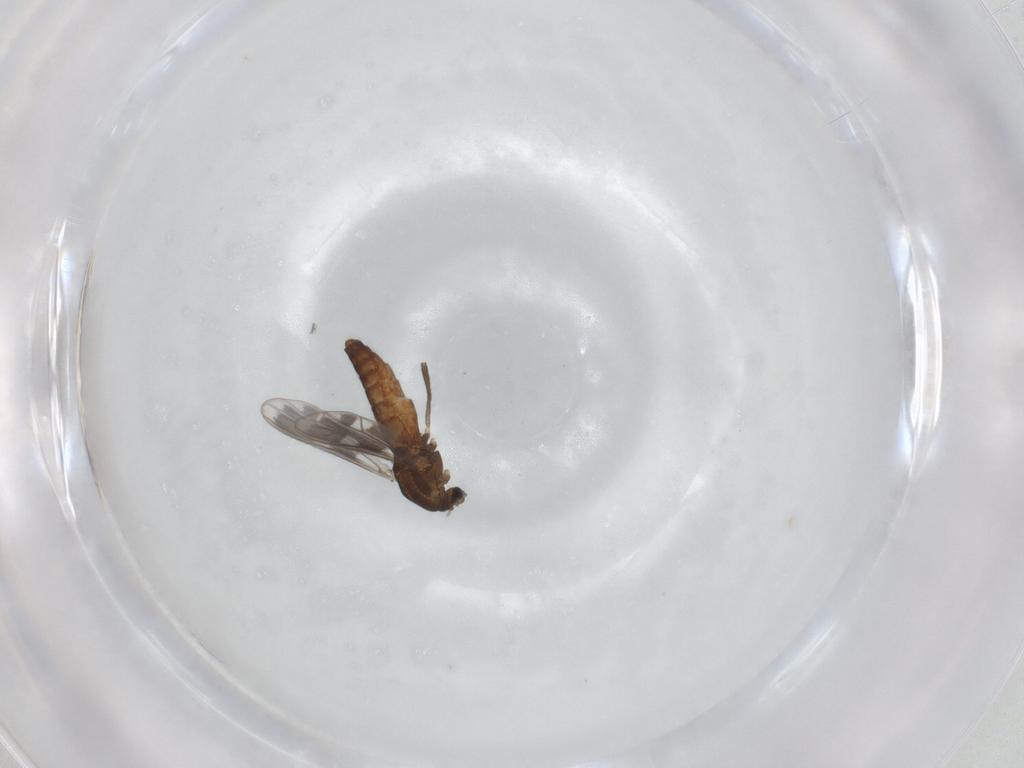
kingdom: Animalia
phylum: Arthropoda
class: Insecta
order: Diptera
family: Chironomidae
